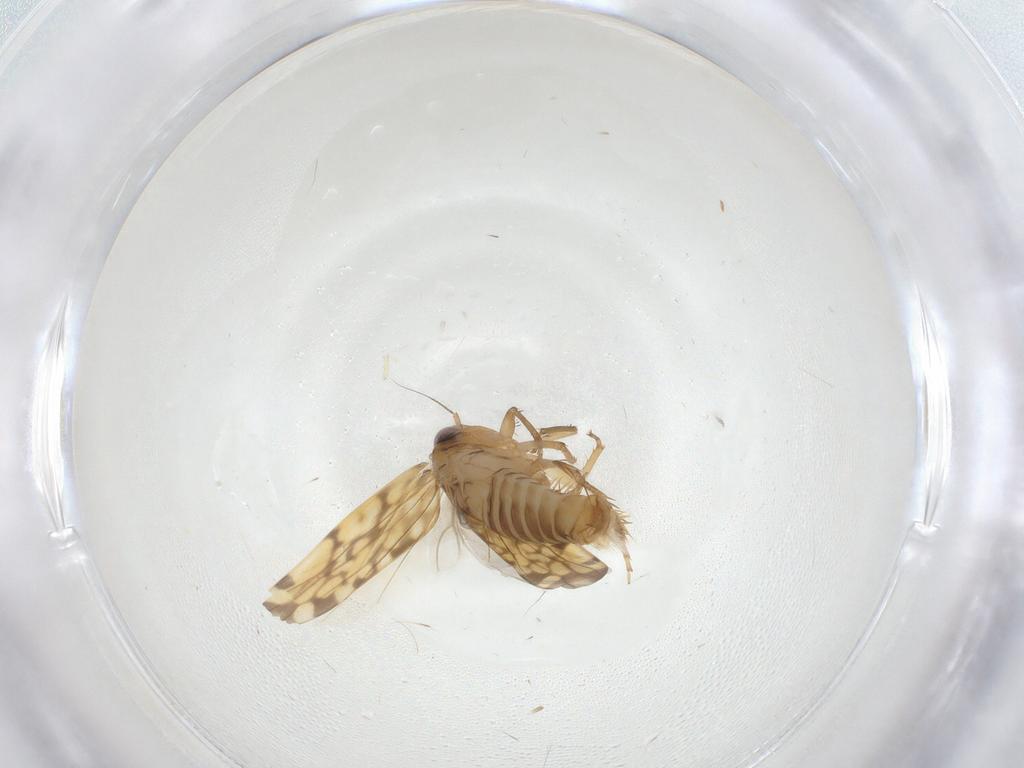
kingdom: Animalia
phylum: Arthropoda
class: Insecta
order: Hemiptera
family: Cicadellidae
